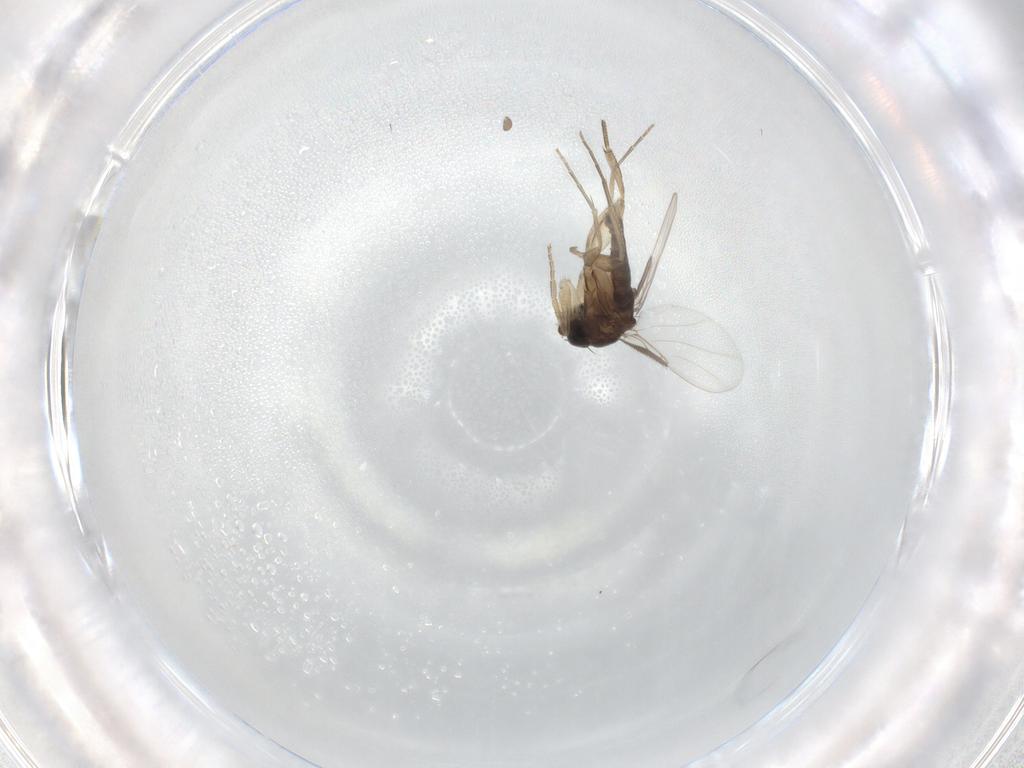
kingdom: Animalia
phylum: Arthropoda
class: Insecta
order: Diptera
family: Phoridae
